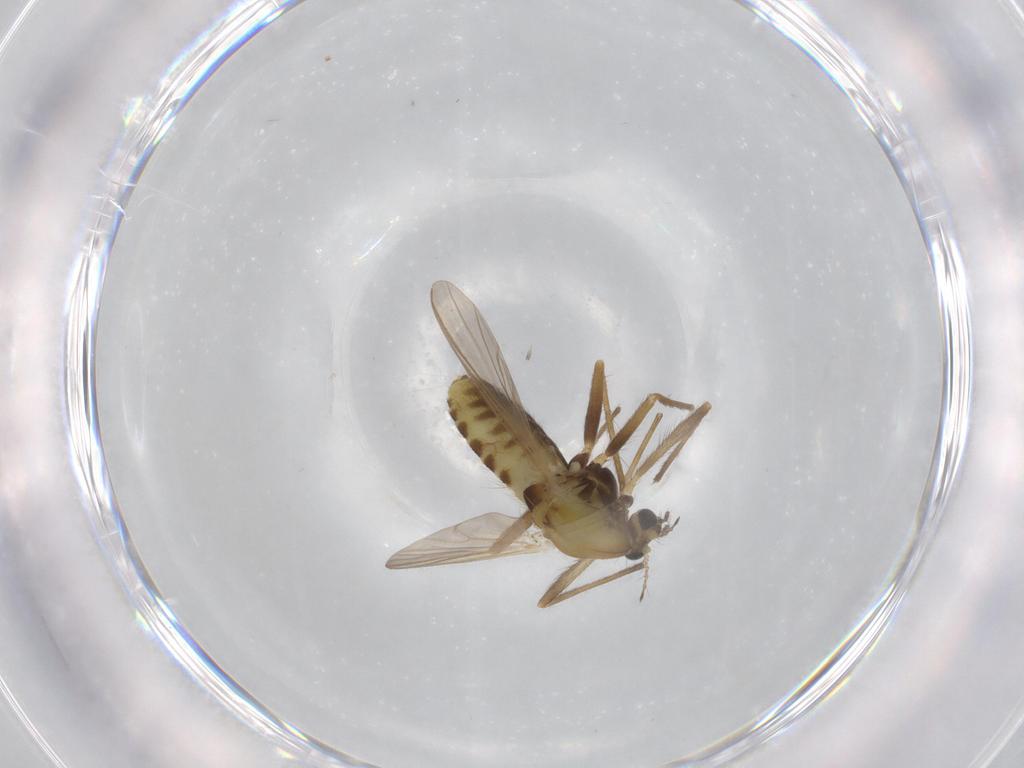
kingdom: Animalia
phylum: Arthropoda
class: Insecta
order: Diptera
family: Chironomidae
